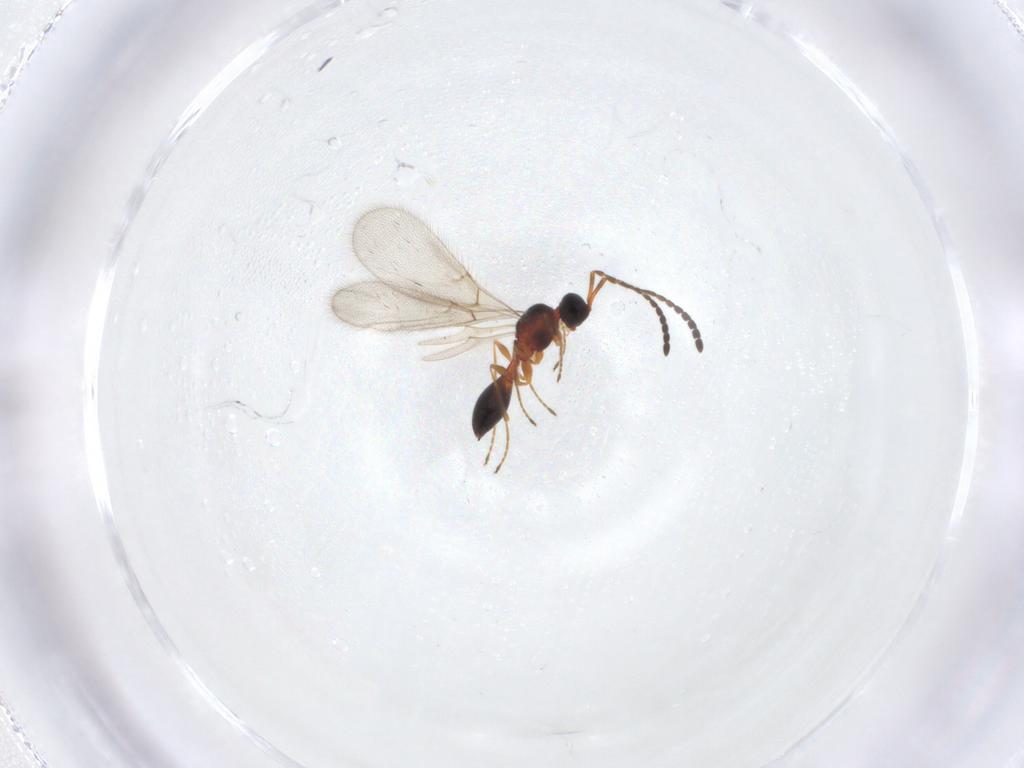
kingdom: Animalia
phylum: Arthropoda
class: Insecta
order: Hymenoptera
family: Diapriidae
